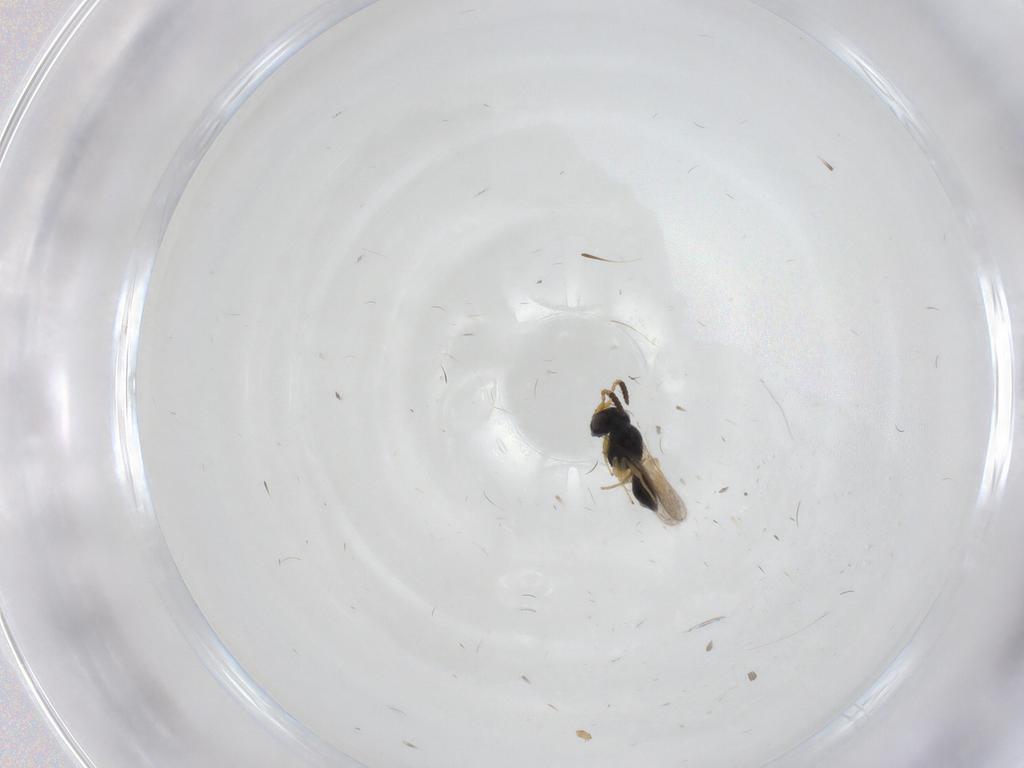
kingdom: Animalia
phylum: Arthropoda
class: Insecta
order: Hymenoptera
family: Scelionidae
